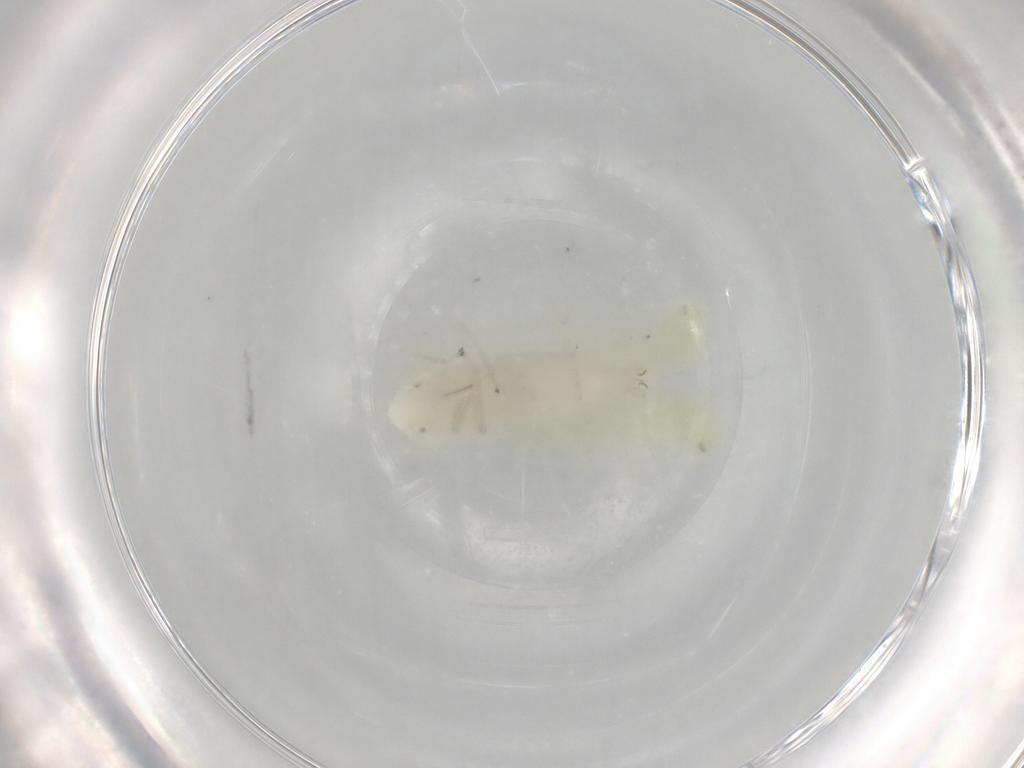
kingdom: Animalia
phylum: Arthropoda
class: Insecta
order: Hemiptera
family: Cicadellidae
